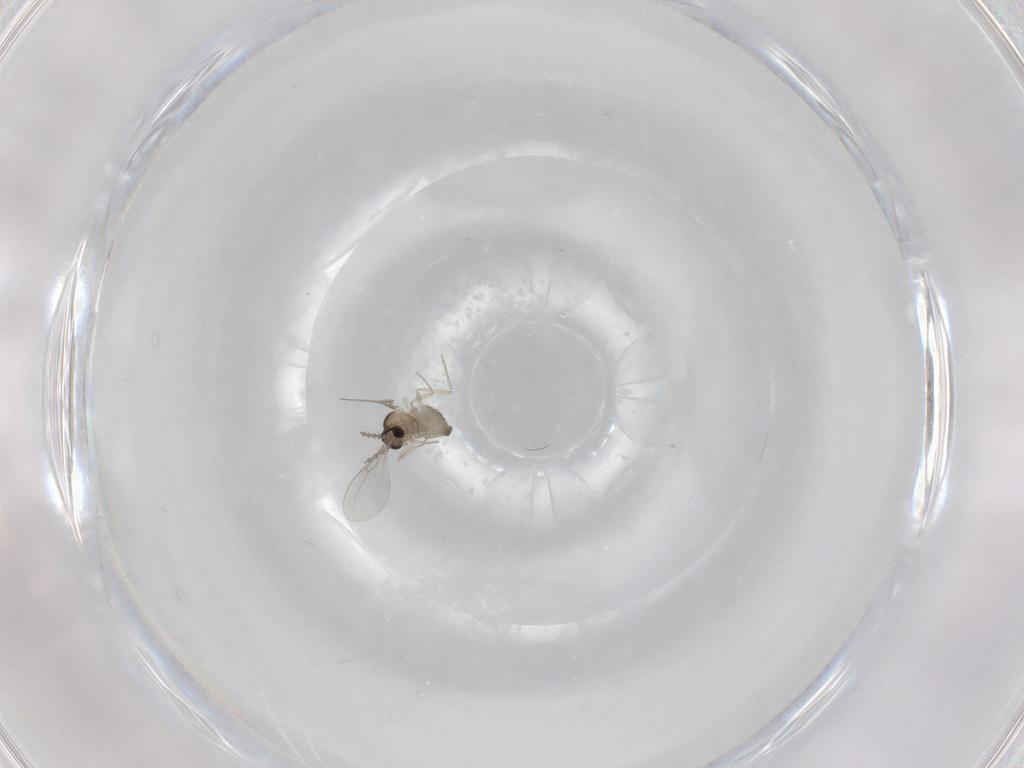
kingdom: Animalia
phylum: Arthropoda
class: Insecta
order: Diptera
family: Cecidomyiidae
